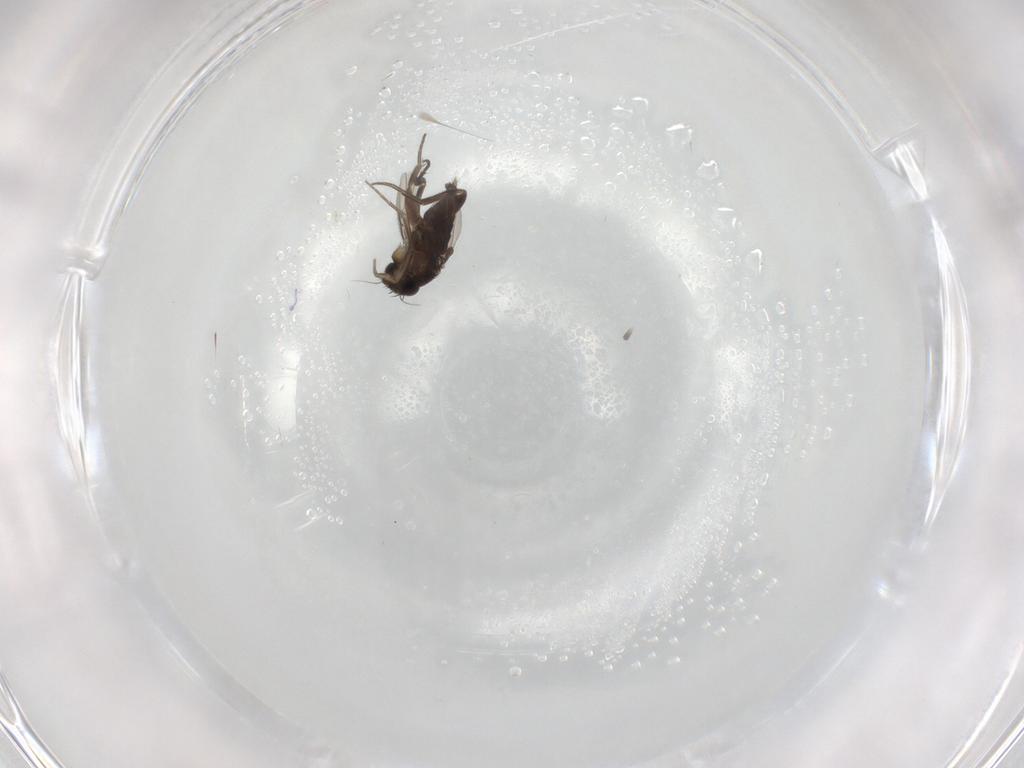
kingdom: Animalia
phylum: Arthropoda
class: Insecta
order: Diptera
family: Phoridae
